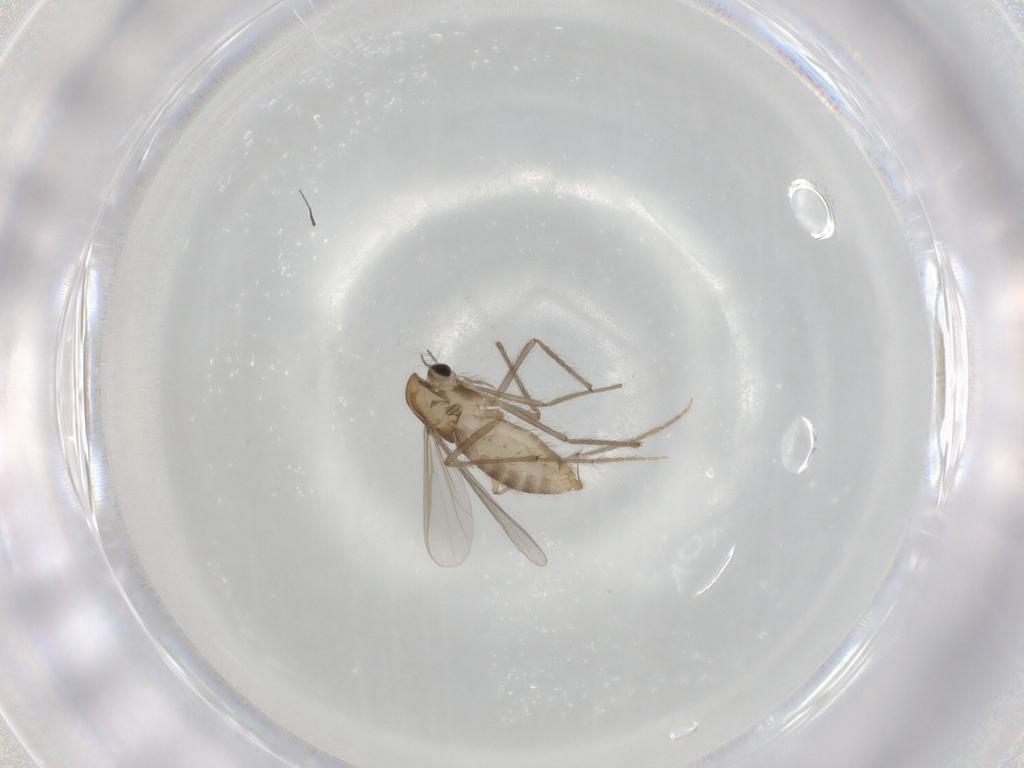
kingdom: Animalia
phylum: Arthropoda
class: Insecta
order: Diptera
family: Chironomidae
